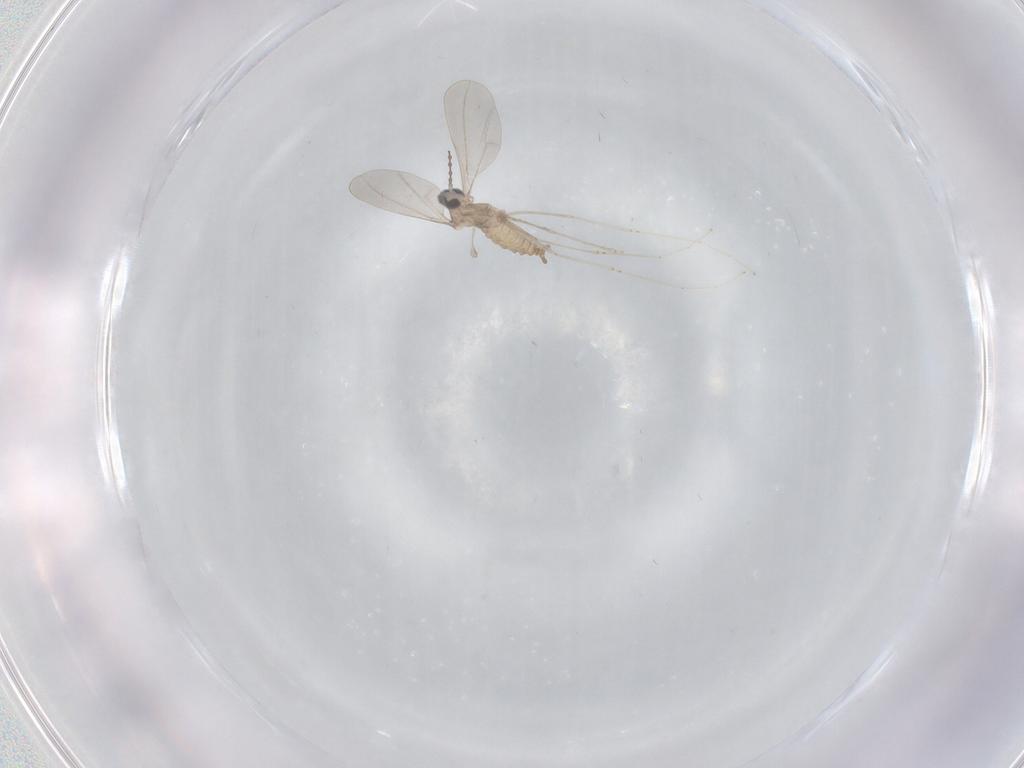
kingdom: Animalia
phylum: Arthropoda
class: Insecta
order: Diptera
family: Cecidomyiidae
